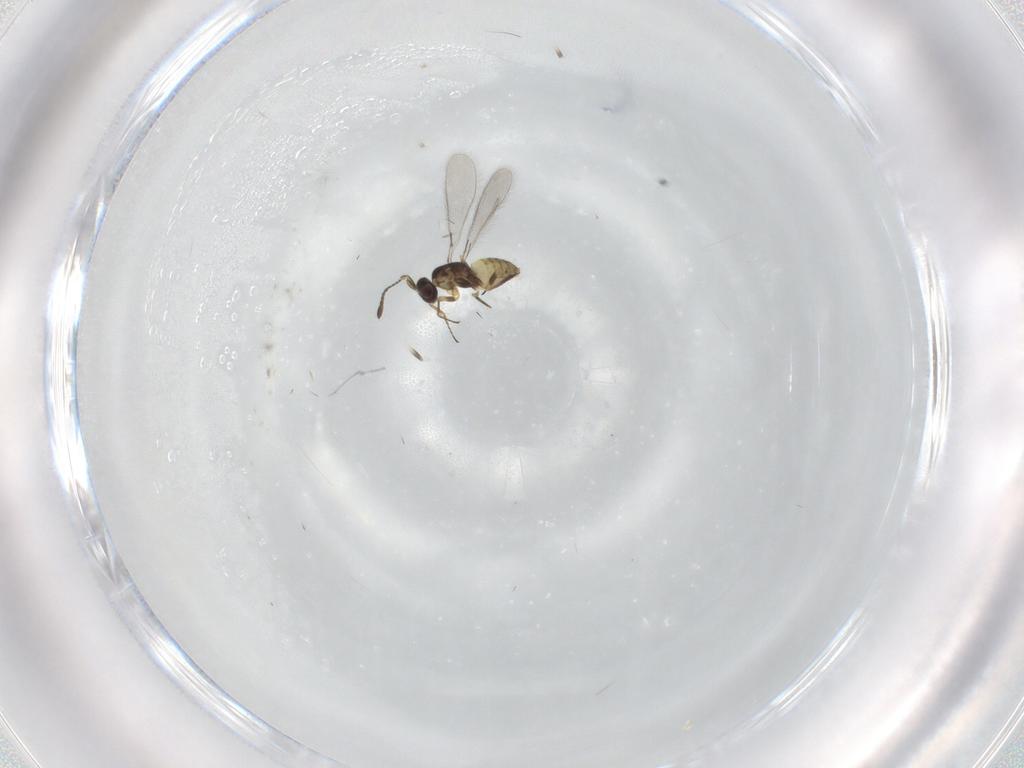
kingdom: Animalia
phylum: Arthropoda
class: Insecta
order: Hymenoptera
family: Pteromalidae
